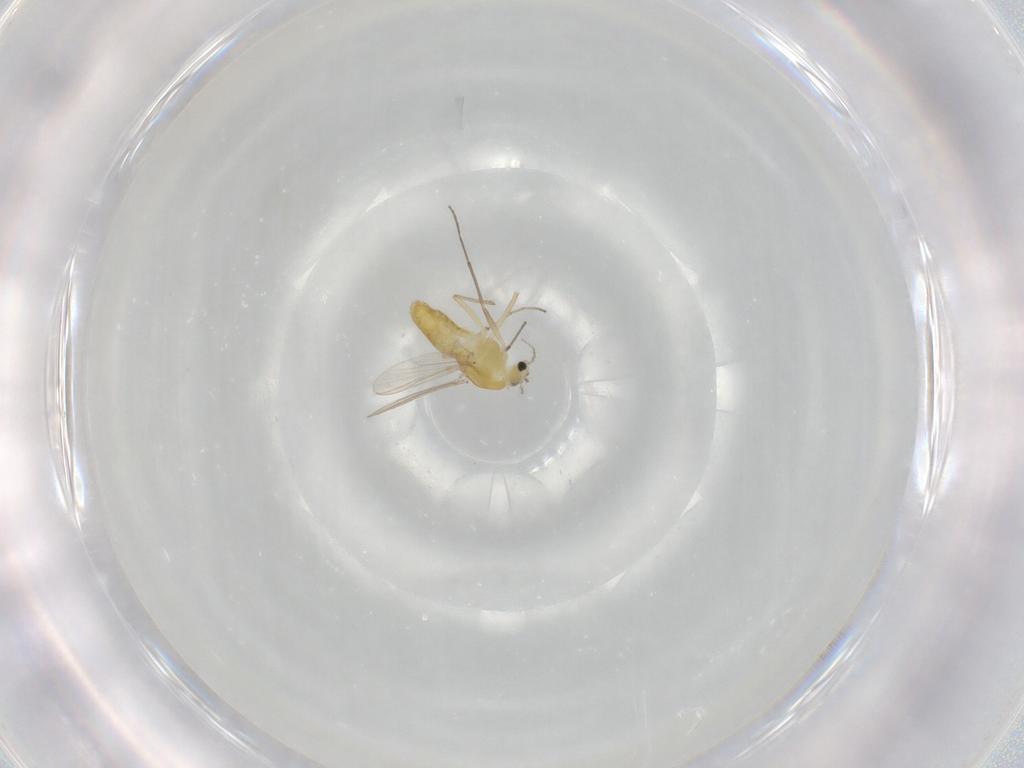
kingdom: Animalia
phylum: Arthropoda
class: Insecta
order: Diptera
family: Chironomidae
